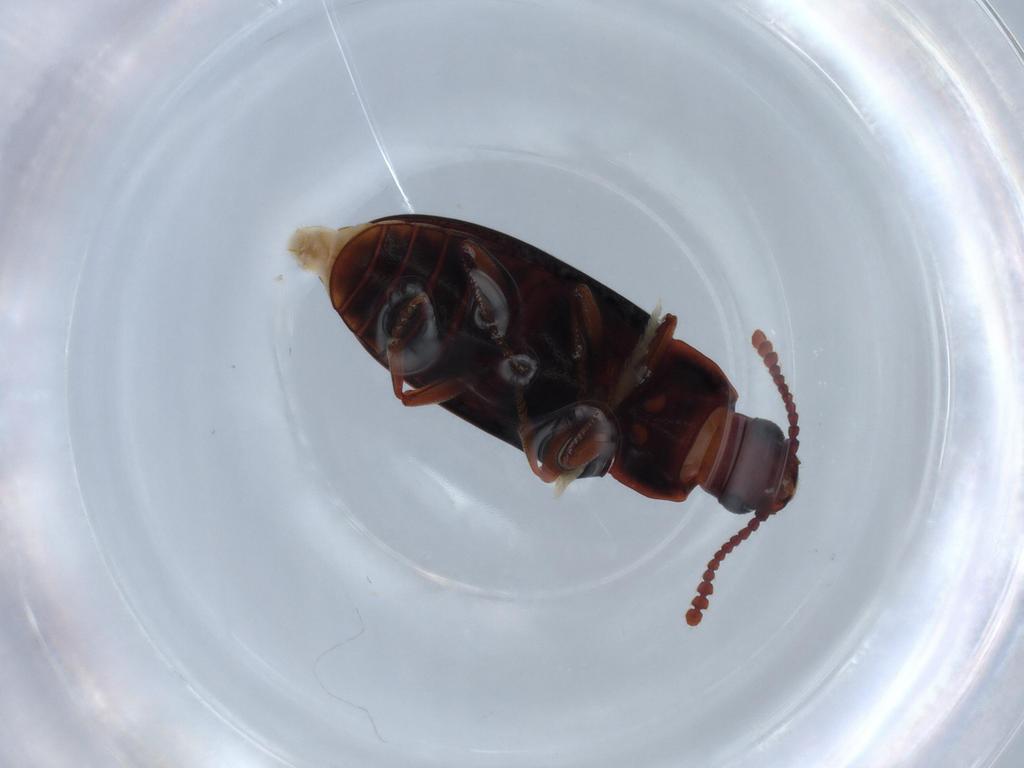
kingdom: Animalia
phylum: Arthropoda
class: Insecta
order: Coleoptera
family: Erotylidae
